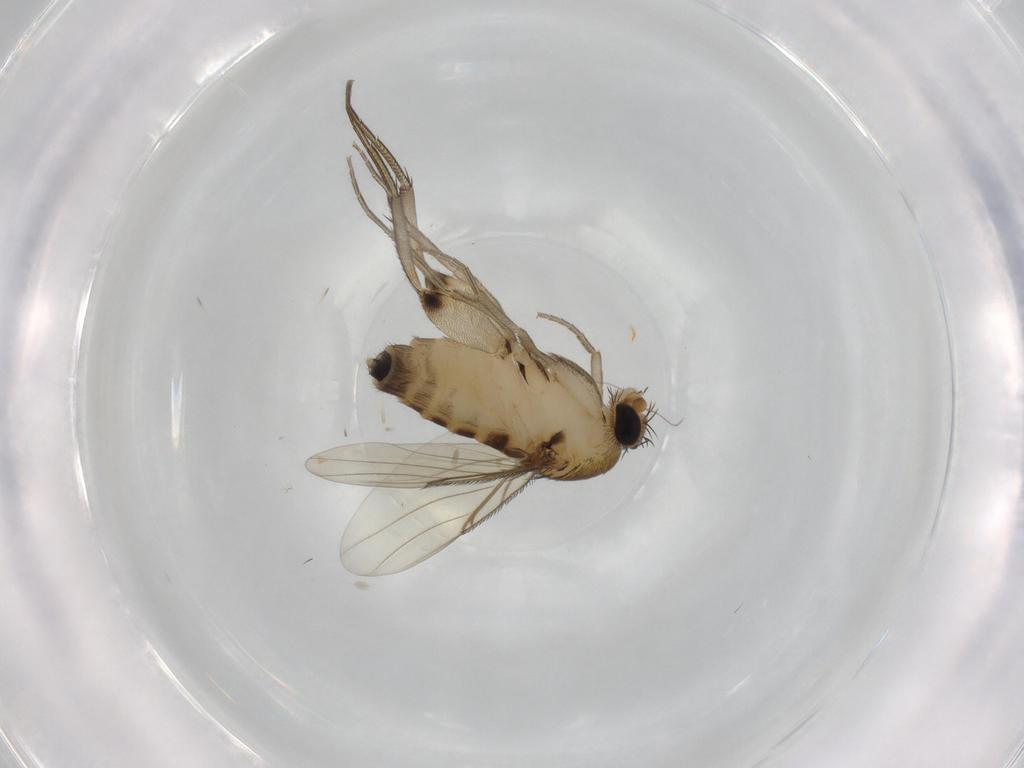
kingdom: Animalia
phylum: Arthropoda
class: Insecta
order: Diptera
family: Phoridae
